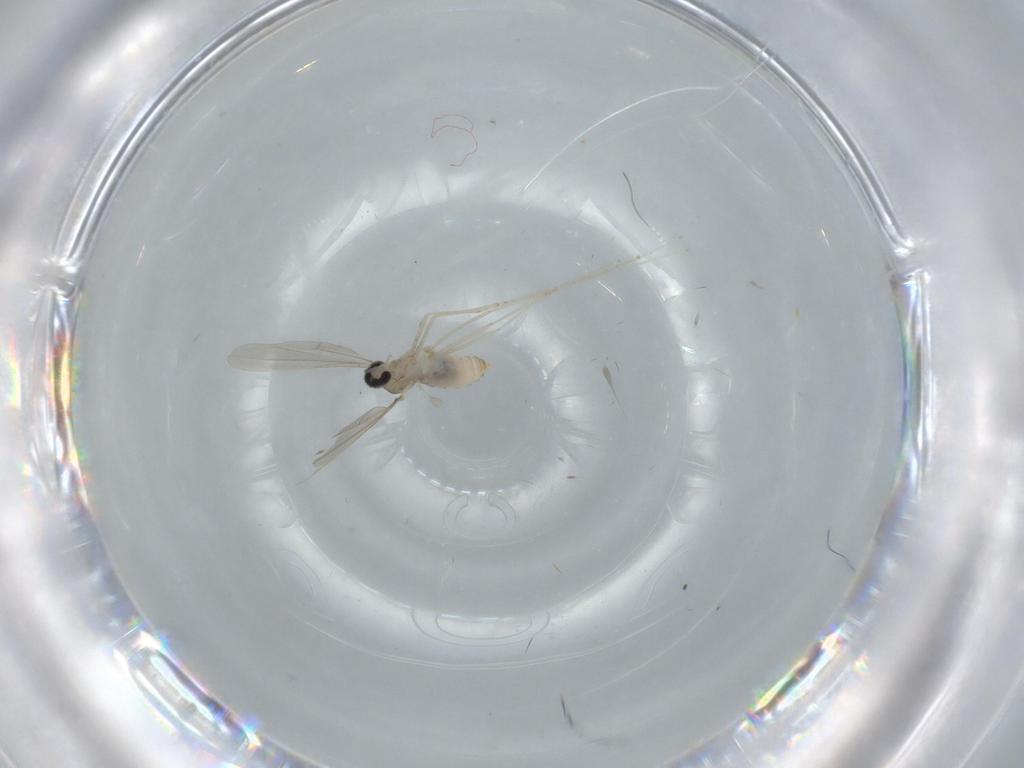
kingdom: Animalia
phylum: Arthropoda
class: Insecta
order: Diptera
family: Cecidomyiidae
